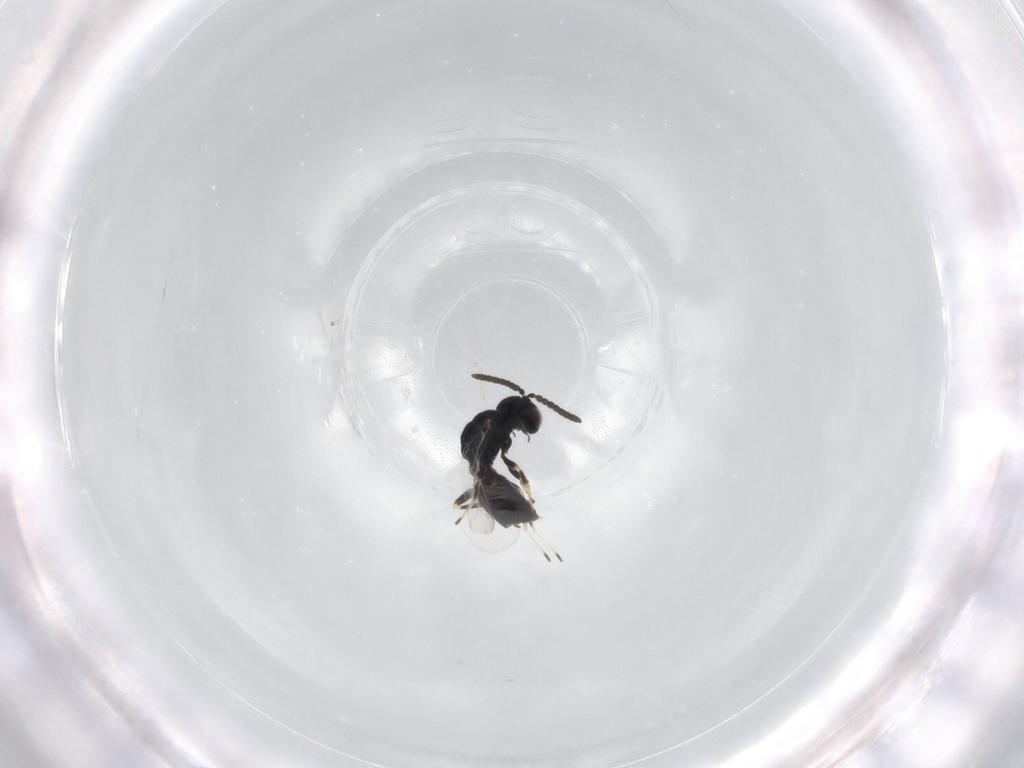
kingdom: Animalia
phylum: Arthropoda
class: Insecta
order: Hymenoptera
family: Pteromalidae
